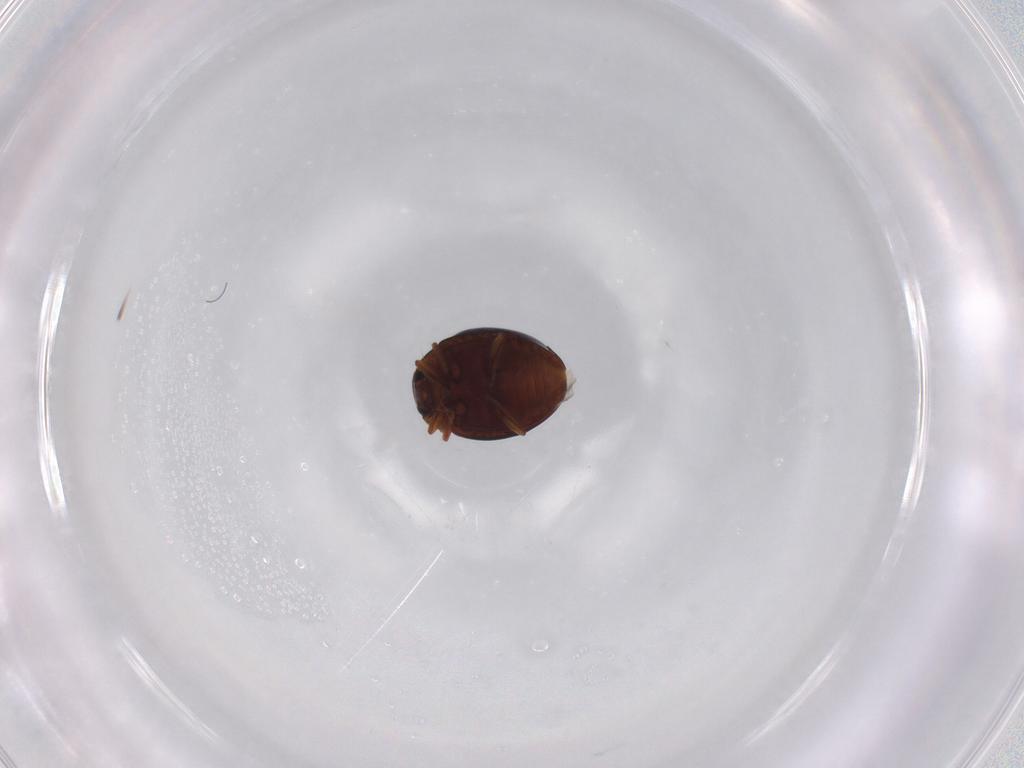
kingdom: Animalia
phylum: Arthropoda
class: Insecta
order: Coleoptera
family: Coccinellidae
